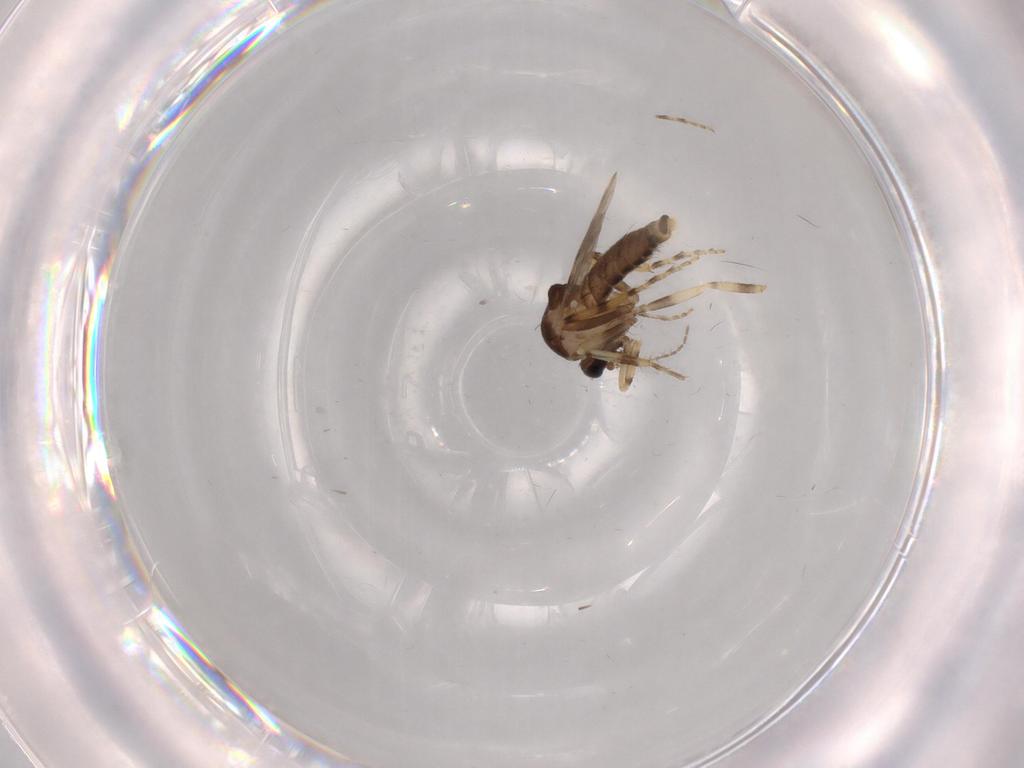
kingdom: Animalia
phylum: Arthropoda
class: Insecta
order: Diptera
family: Ceratopogonidae
